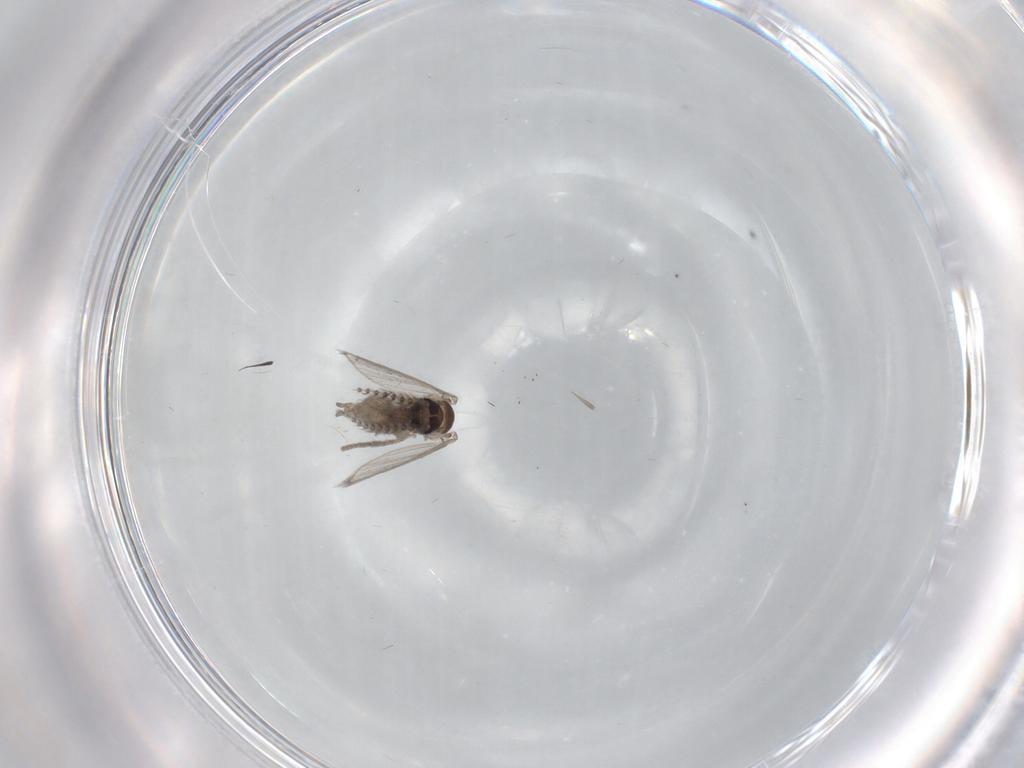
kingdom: Animalia
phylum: Arthropoda
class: Insecta
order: Diptera
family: Psychodidae
